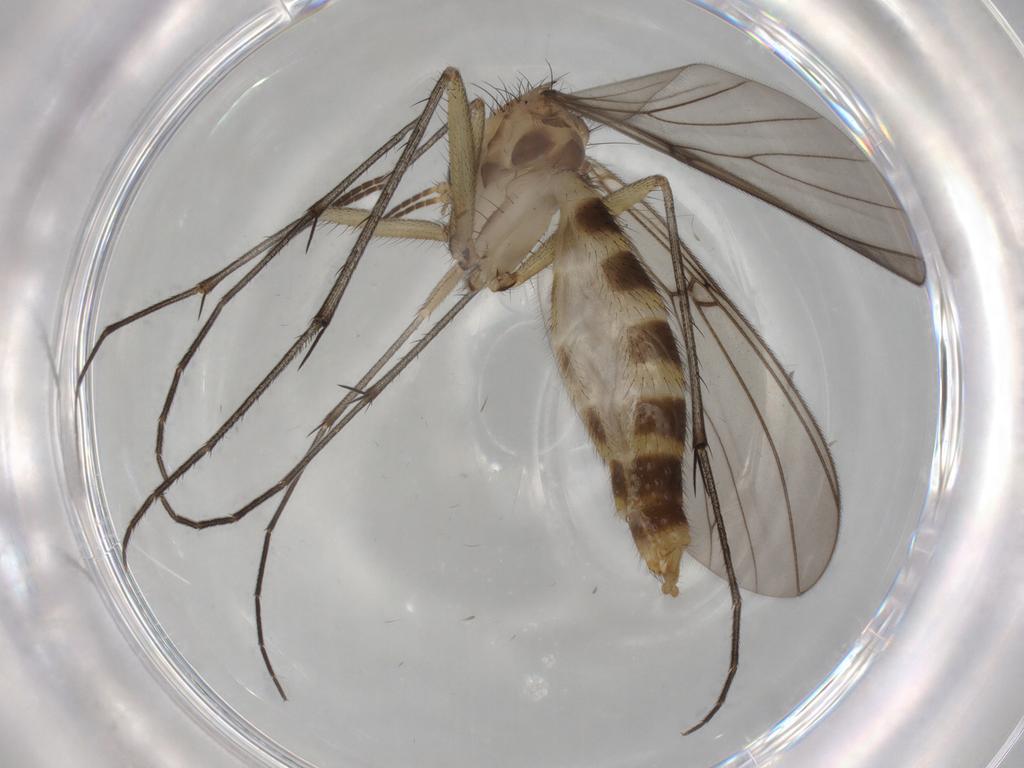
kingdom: Animalia
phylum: Arthropoda
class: Insecta
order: Diptera
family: Mycetophilidae
